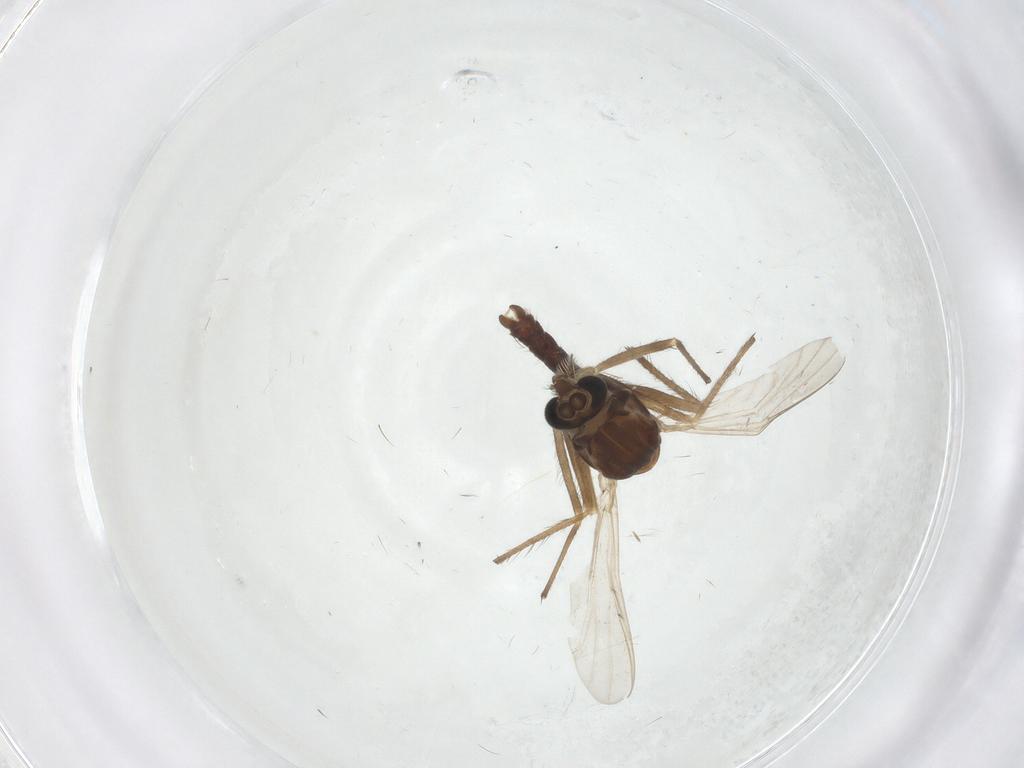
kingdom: Animalia
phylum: Arthropoda
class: Insecta
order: Diptera
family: Chironomidae
